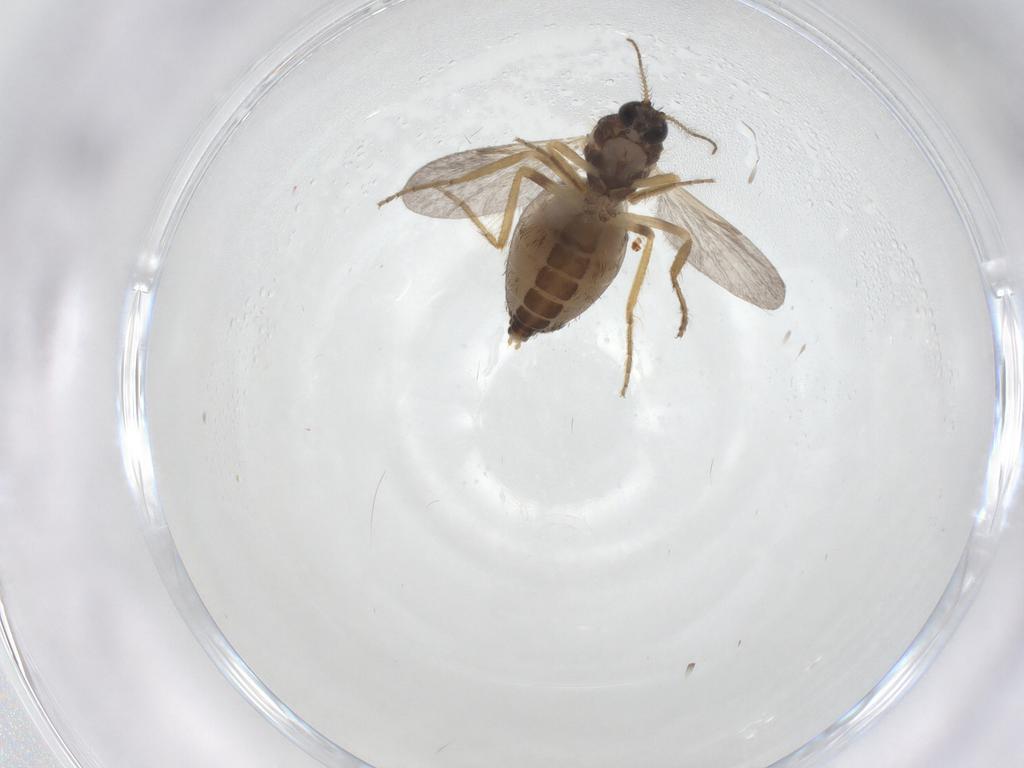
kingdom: Animalia
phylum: Arthropoda
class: Insecta
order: Diptera
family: Ceratopogonidae
